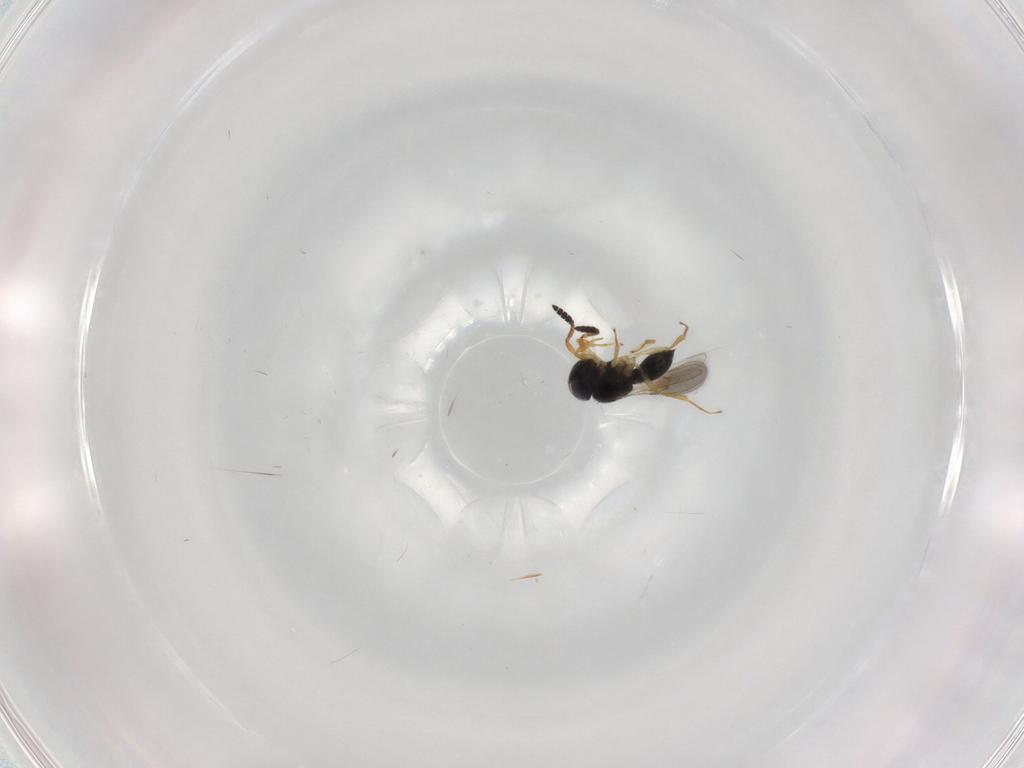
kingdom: Animalia
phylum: Arthropoda
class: Insecta
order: Hymenoptera
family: Scelionidae
